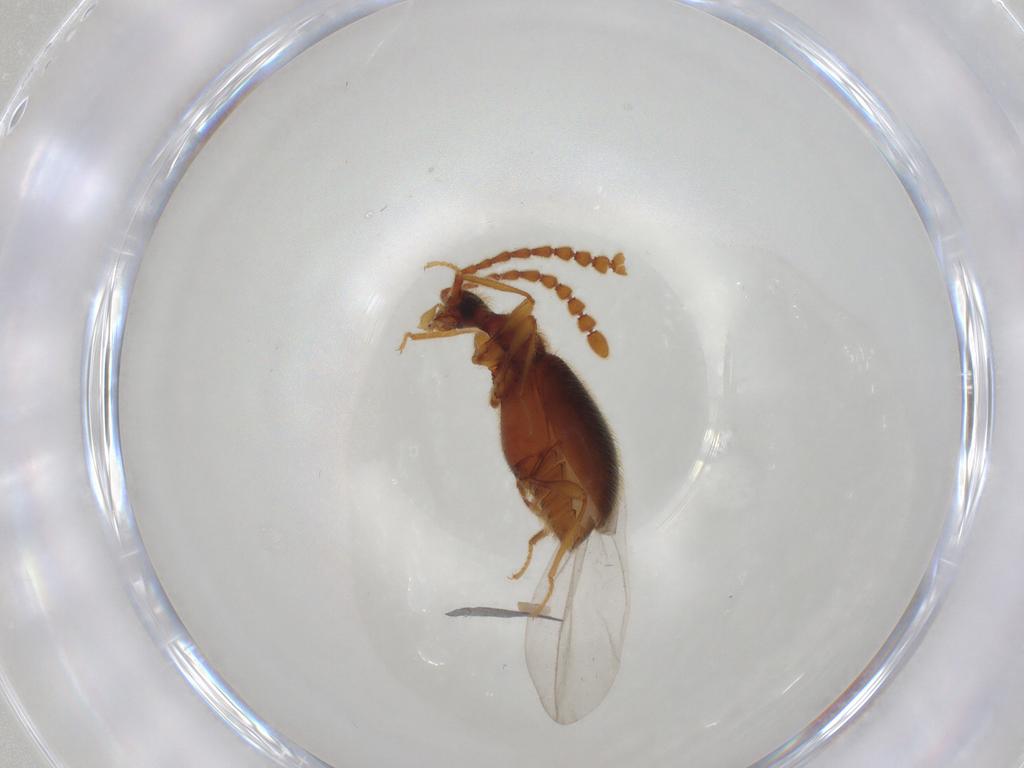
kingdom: Animalia
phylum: Arthropoda
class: Insecta
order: Coleoptera
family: Staphylinidae
